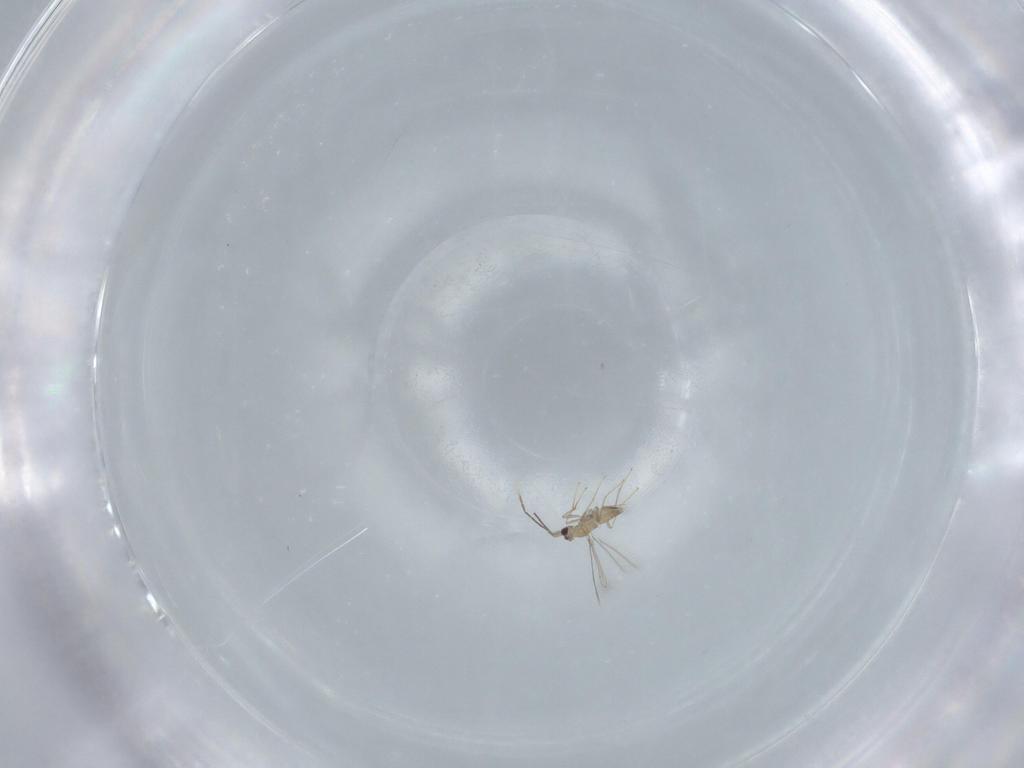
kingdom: Animalia
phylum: Arthropoda
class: Insecta
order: Hymenoptera
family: Mymaridae
